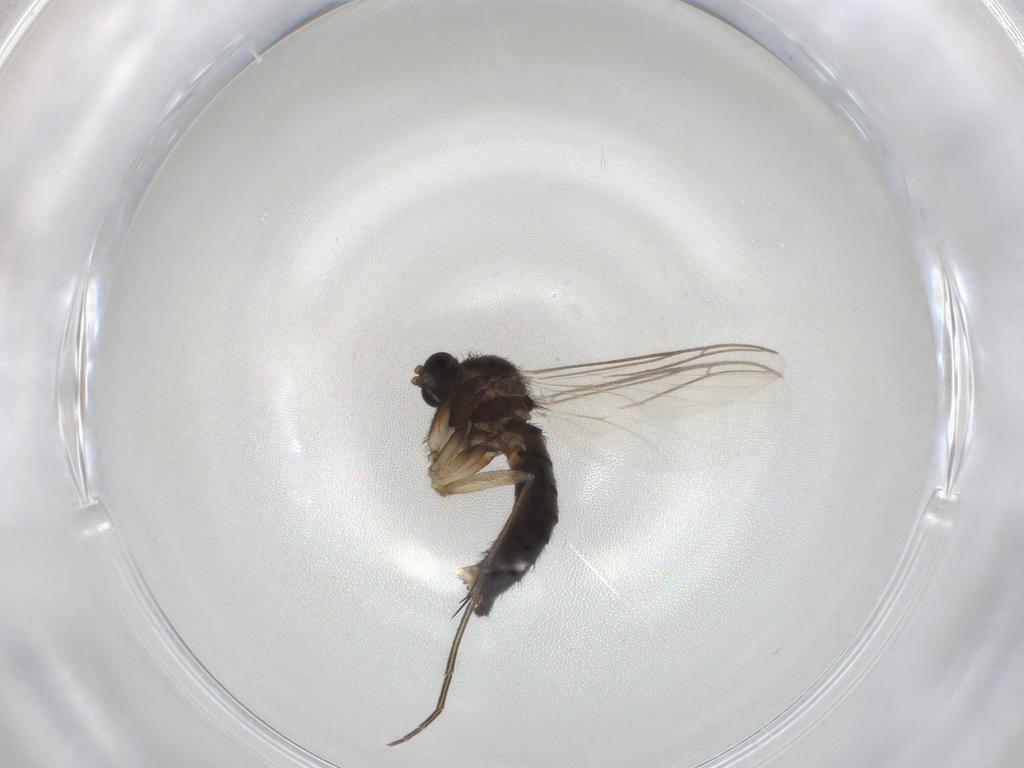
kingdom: Animalia
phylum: Arthropoda
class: Insecta
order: Diptera
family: Keroplatidae
